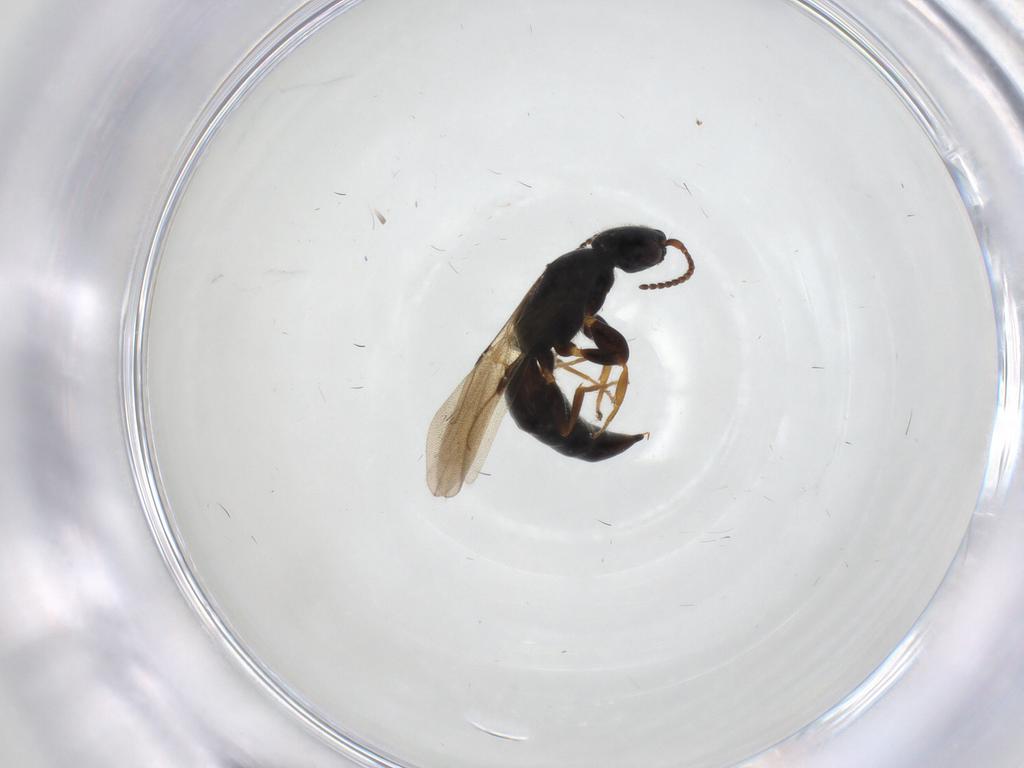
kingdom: Animalia
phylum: Arthropoda
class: Insecta
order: Hymenoptera
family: Bethylidae
